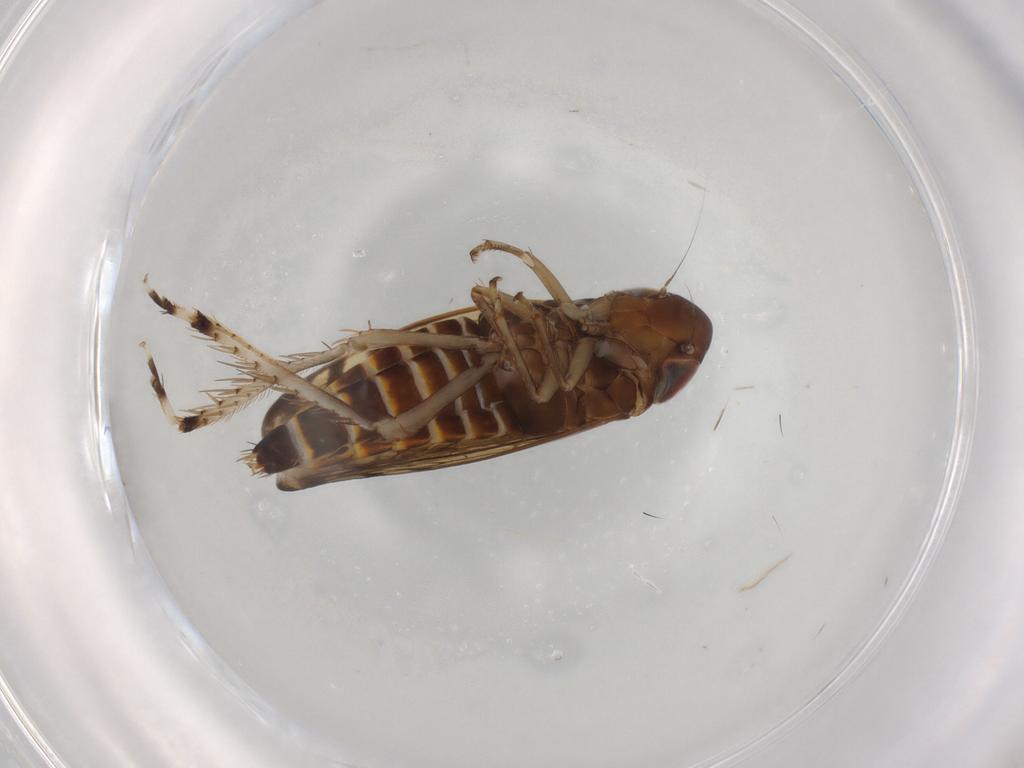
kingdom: Animalia
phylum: Arthropoda
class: Insecta
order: Hemiptera
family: Cicadellidae
